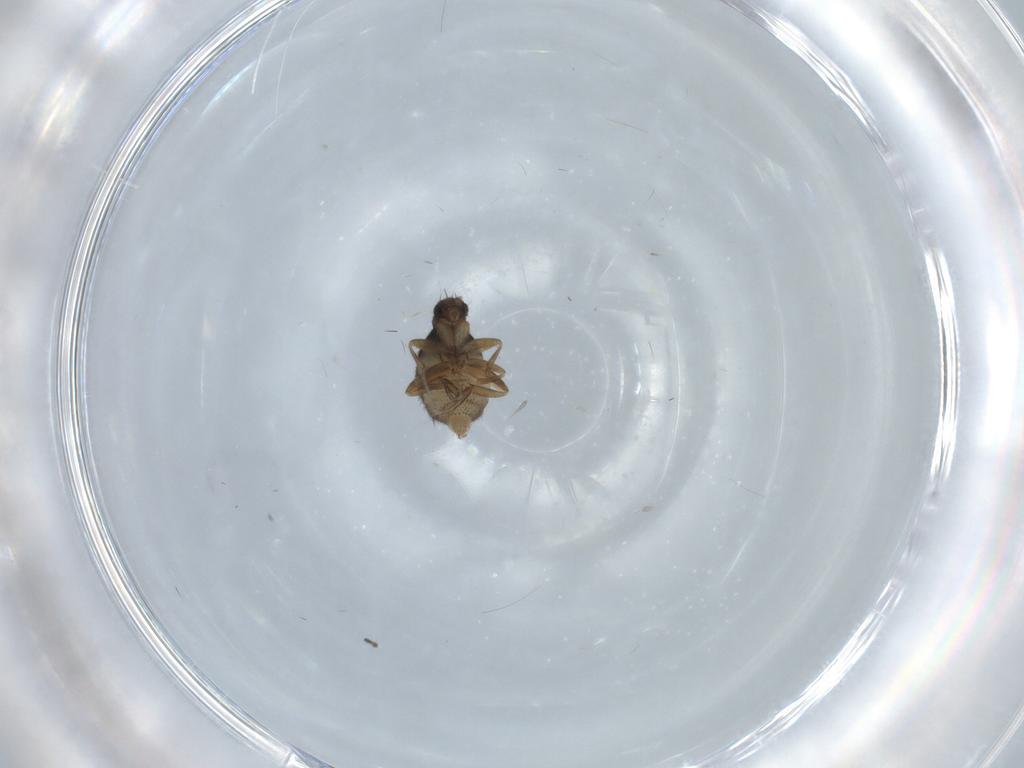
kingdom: Animalia
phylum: Arthropoda
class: Insecta
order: Diptera
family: Phoridae
